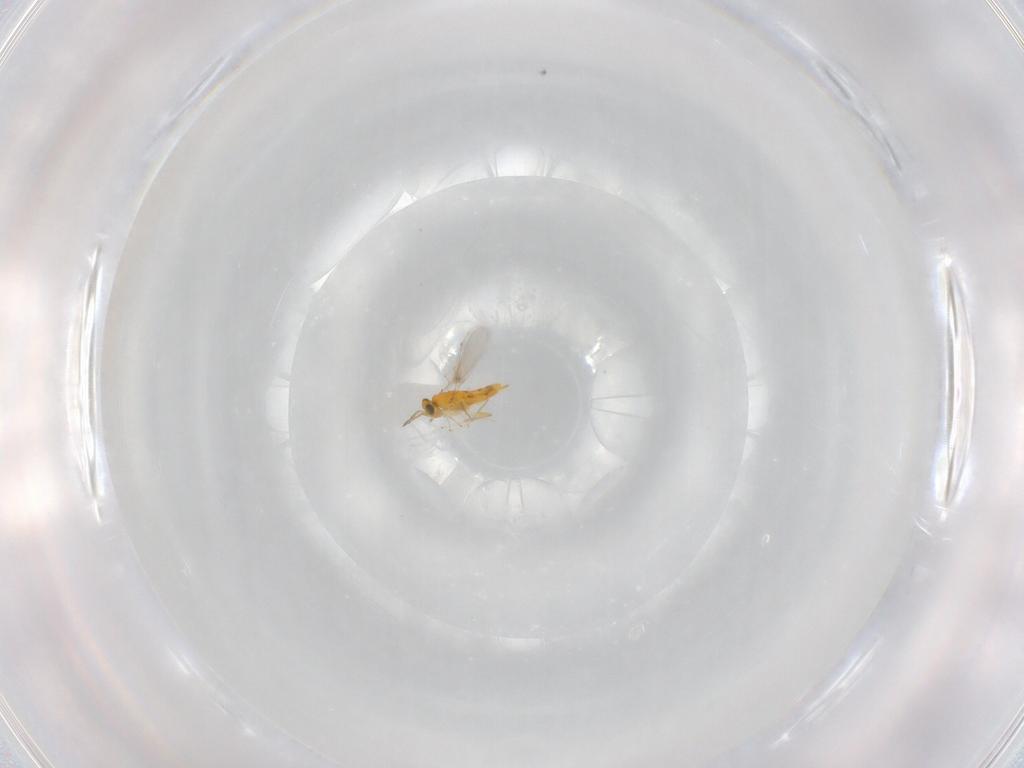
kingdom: Animalia
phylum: Arthropoda
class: Insecta
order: Hymenoptera
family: Aphelinidae
